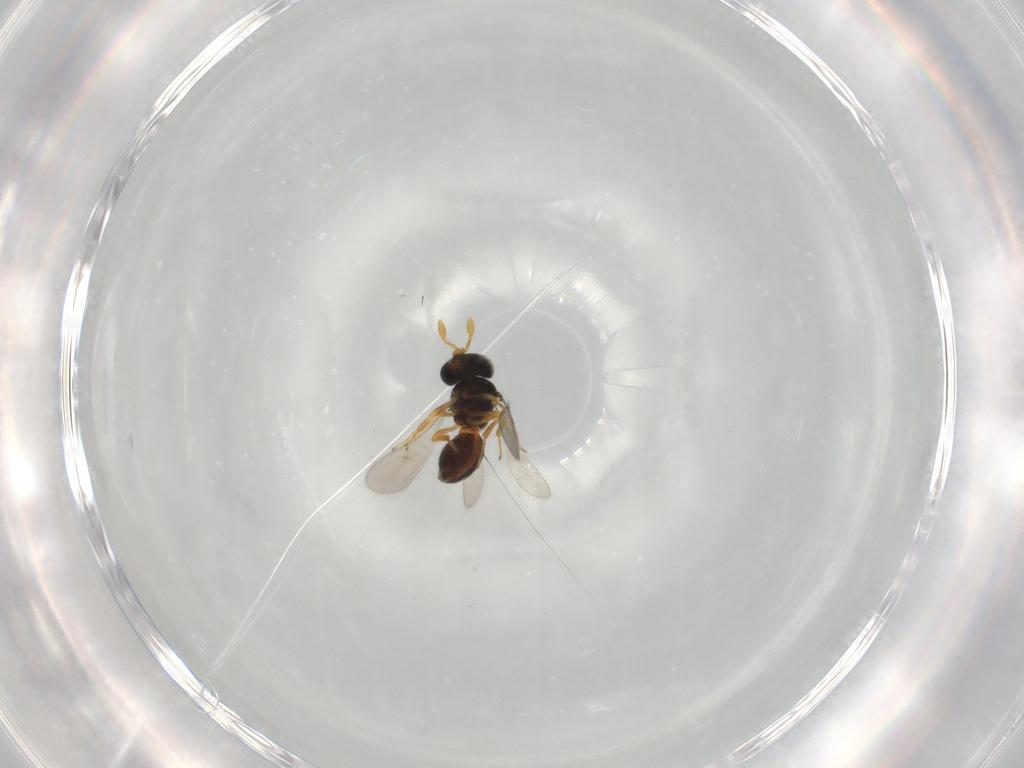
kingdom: Animalia
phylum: Arthropoda
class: Insecta
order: Hymenoptera
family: Scelionidae
